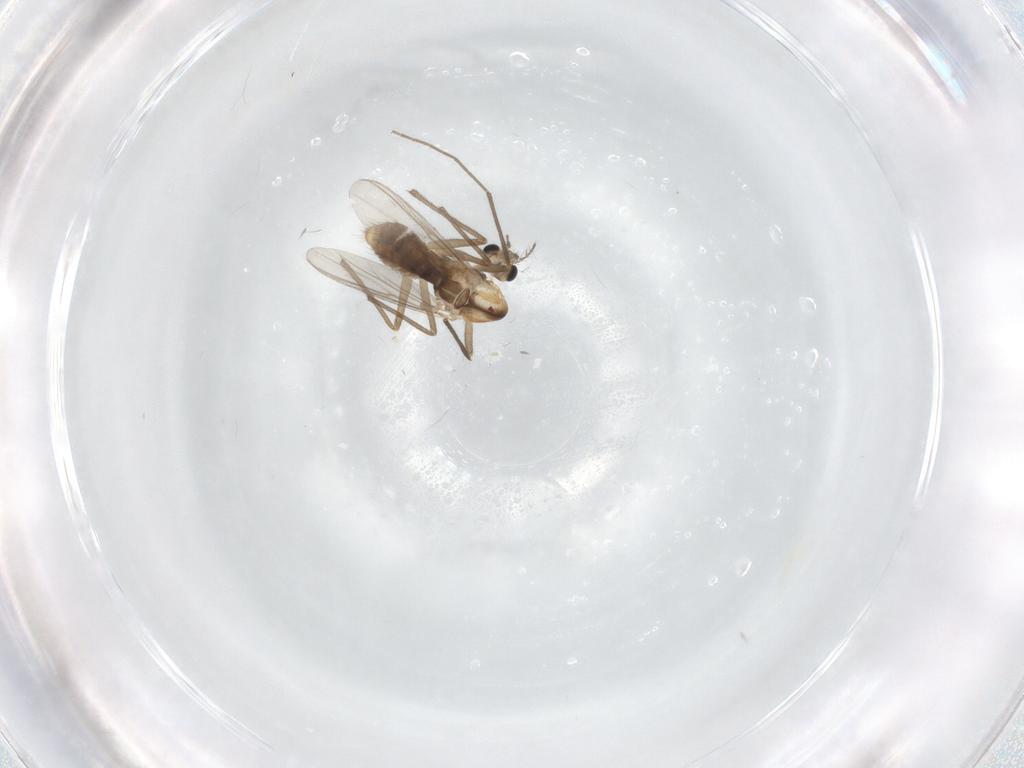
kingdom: Animalia
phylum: Arthropoda
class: Insecta
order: Diptera
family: Chironomidae
